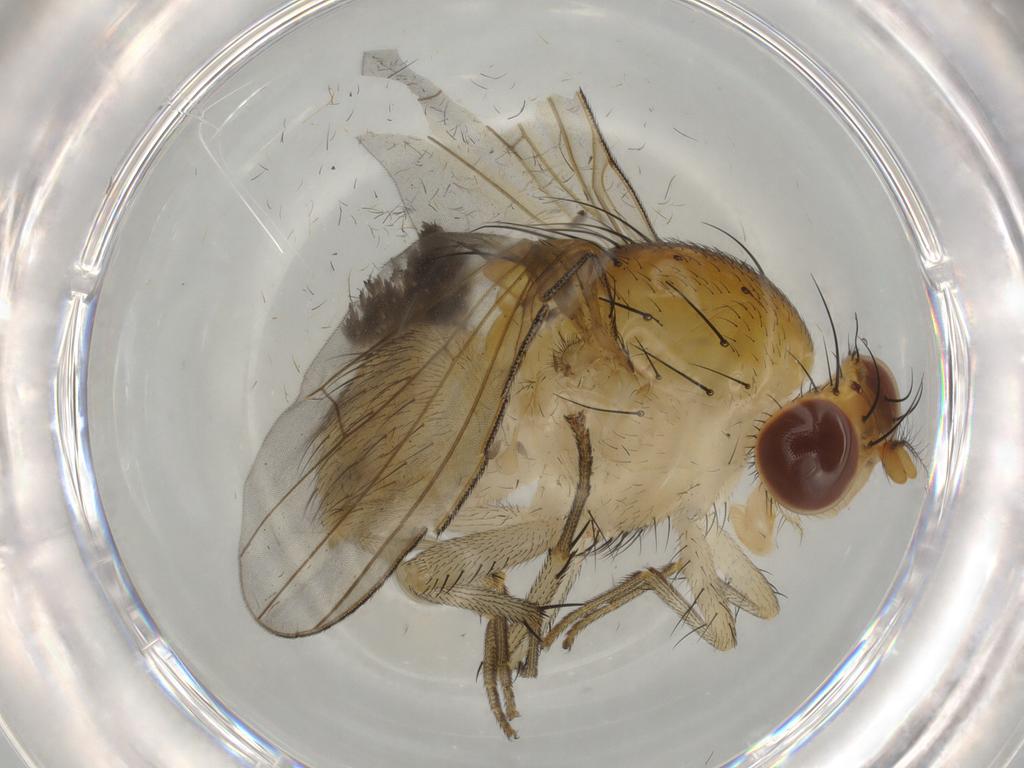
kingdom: Animalia
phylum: Arthropoda
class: Insecta
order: Diptera
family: Cecidomyiidae
